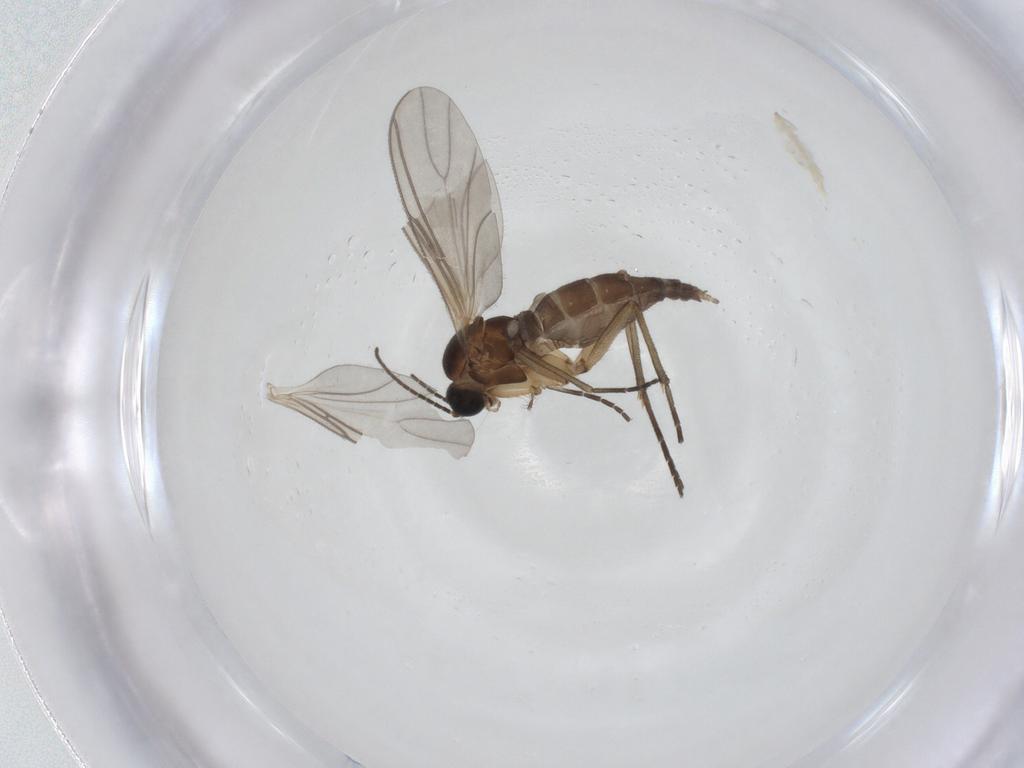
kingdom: Animalia
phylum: Arthropoda
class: Insecta
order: Diptera
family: Sciaridae
